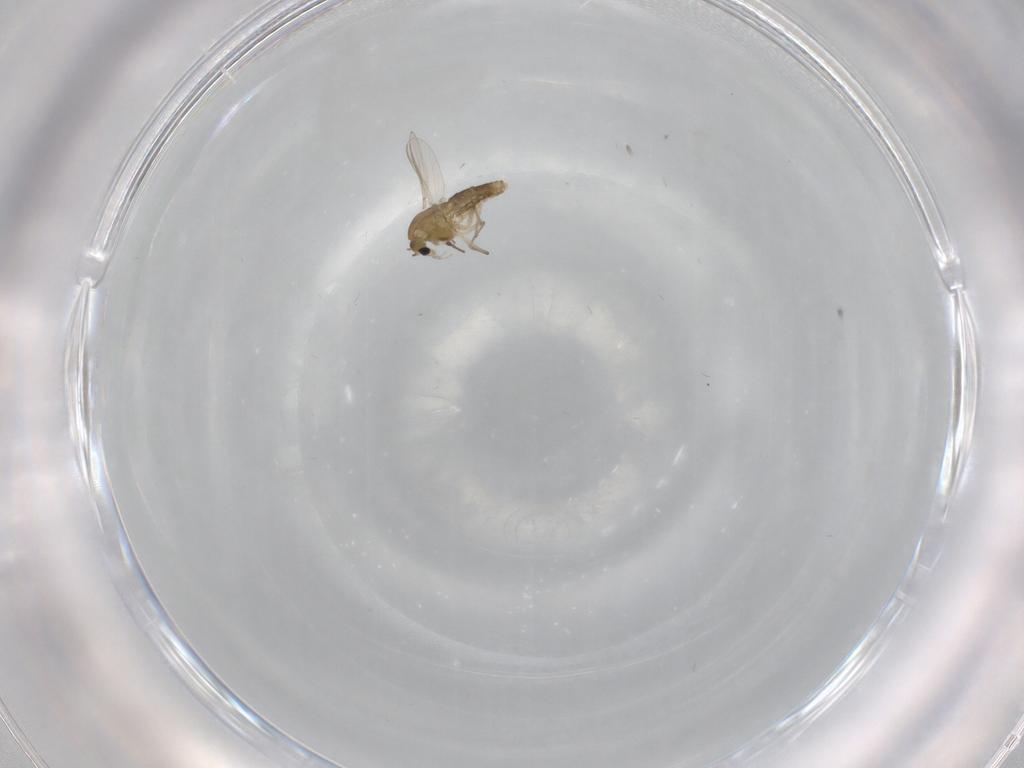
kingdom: Animalia
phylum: Arthropoda
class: Insecta
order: Diptera
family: Chironomidae
